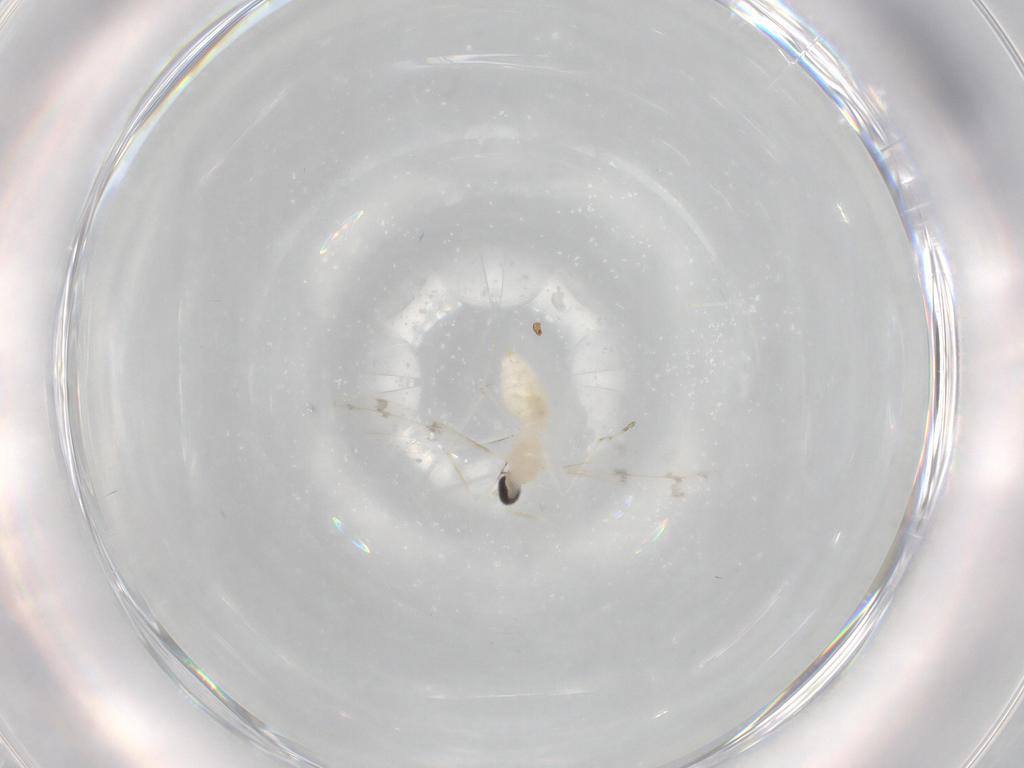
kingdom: Animalia
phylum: Arthropoda
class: Insecta
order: Diptera
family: Cecidomyiidae
